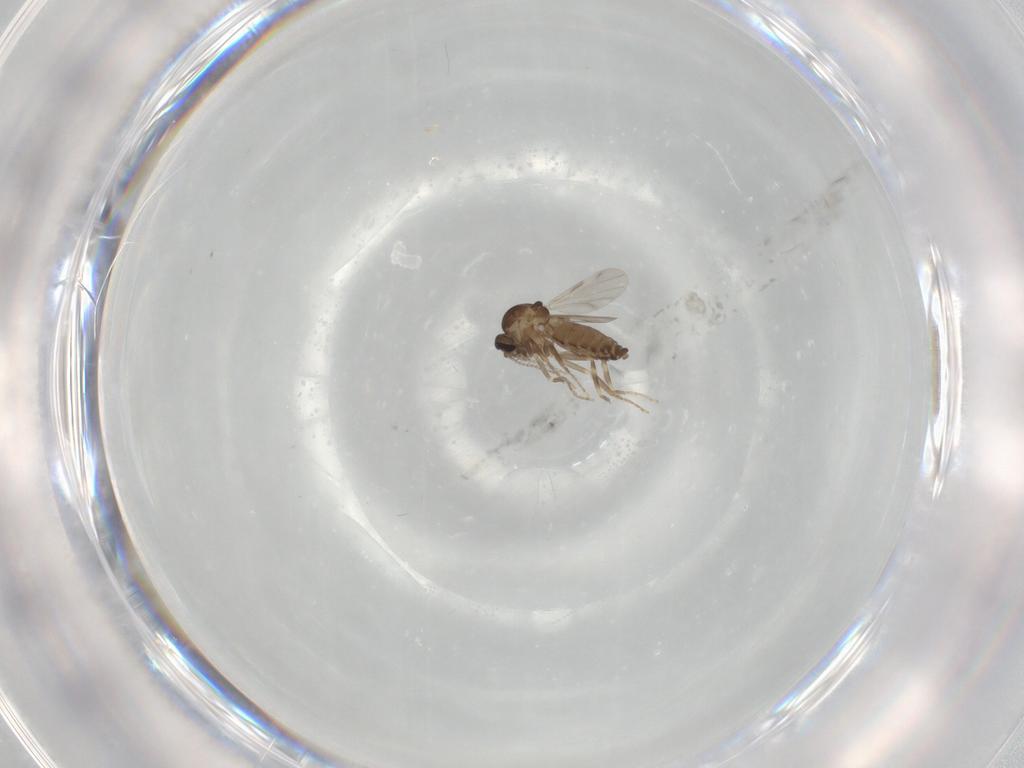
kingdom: Animalia
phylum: Arthropoda
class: Insecta
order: Diptera
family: Ceratopogonidae
